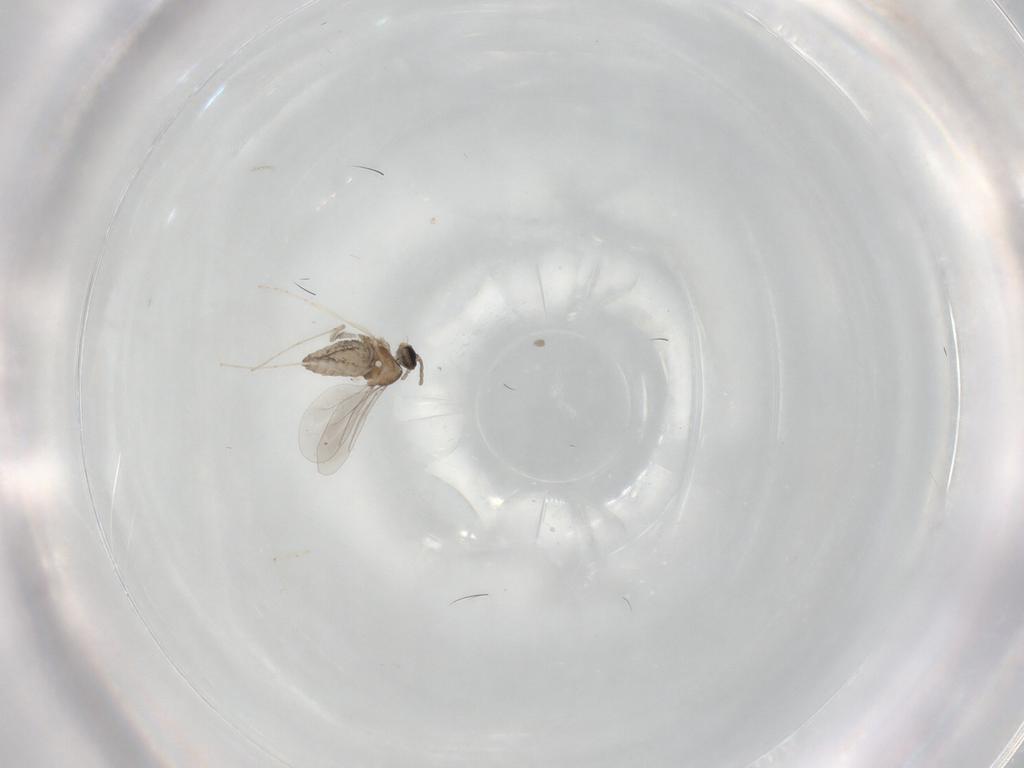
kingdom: Animalia
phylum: Arthropoda
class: Insecta
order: Diptera
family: Cecidomyiidae
